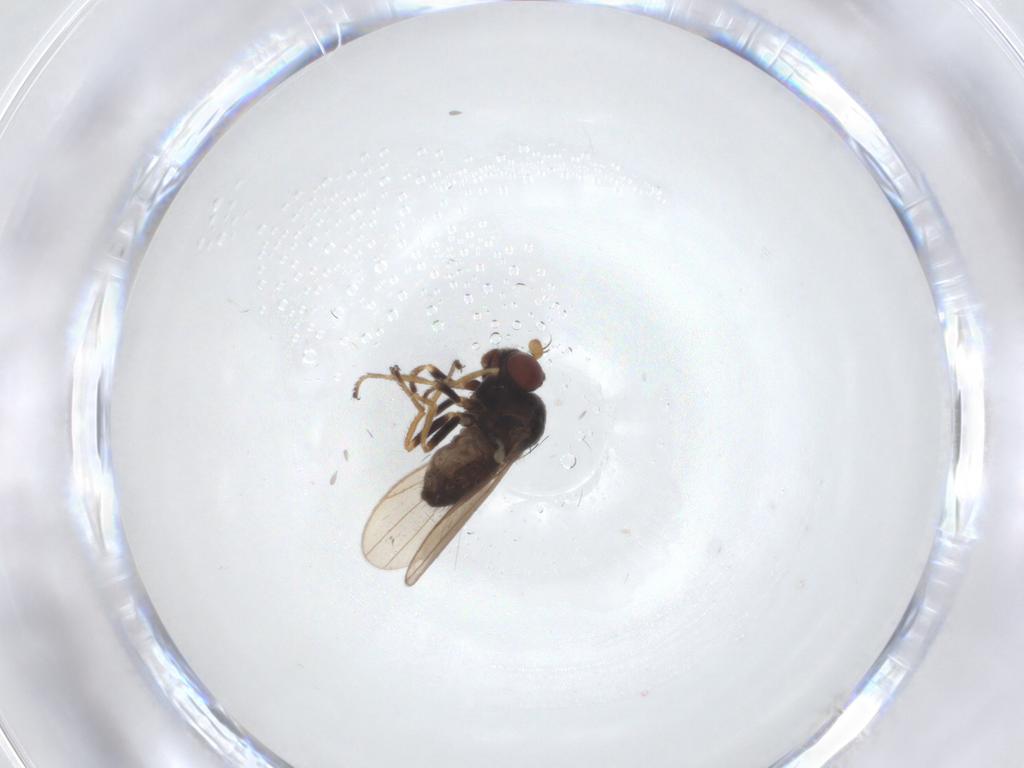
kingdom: Animalia
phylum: Arthropoda
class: Insecta
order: Diptera
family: Ephydridae
